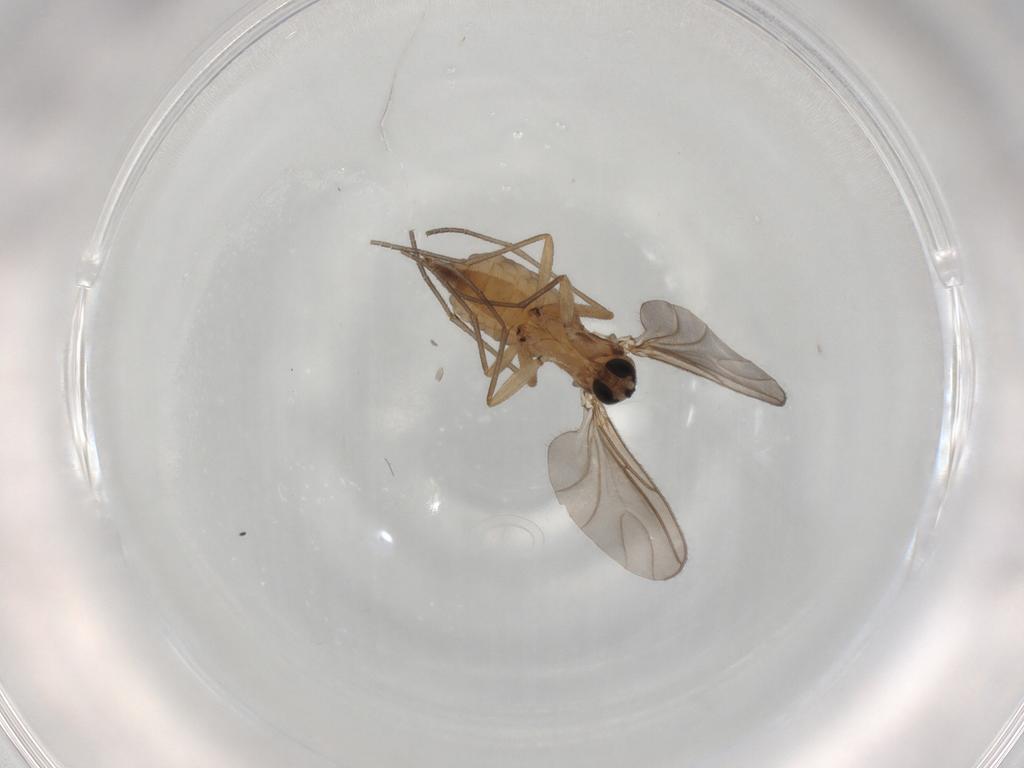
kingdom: Animalia
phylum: Arthropoda
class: Insecta
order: Diptera
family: Sciaridae
